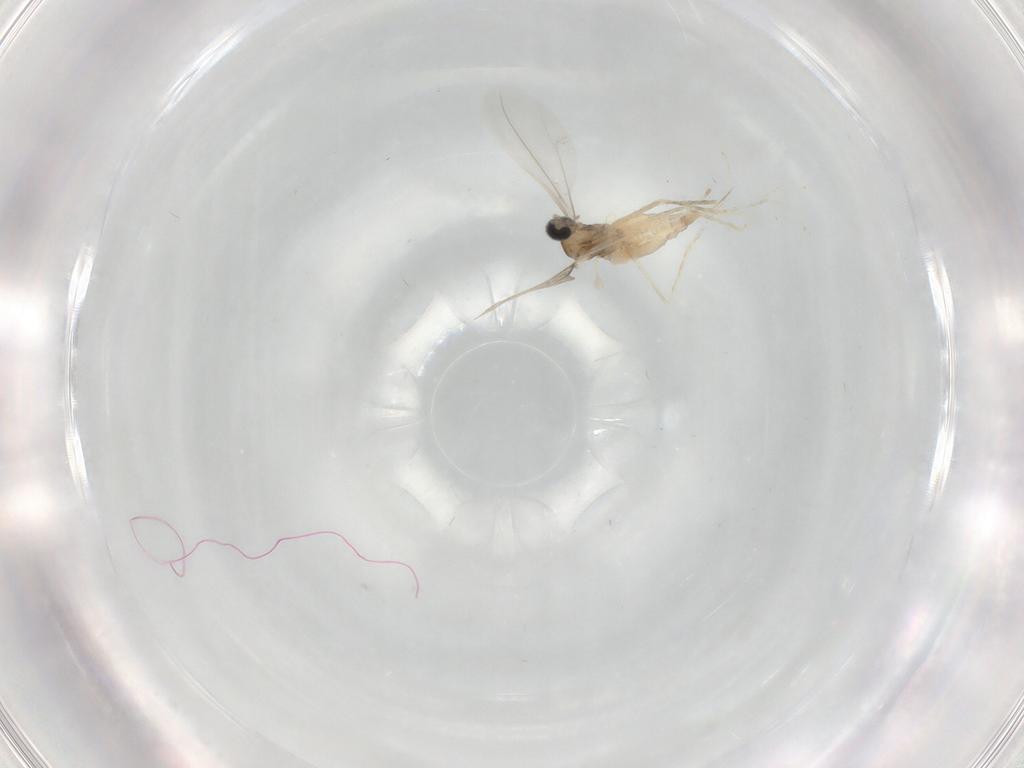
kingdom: Animalia
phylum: Arthropoda
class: Insecta
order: Diptera
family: Cecidomyiidae
